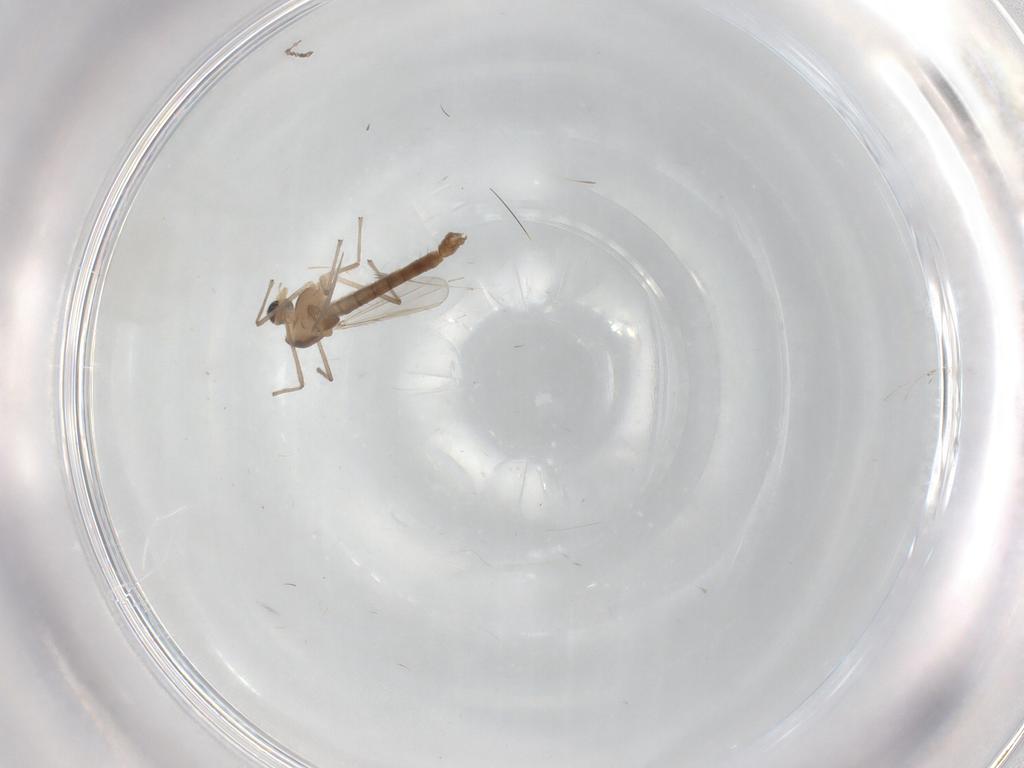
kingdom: Animalia
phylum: Arthropoda
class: Insecta
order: Diptera
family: Chironomidae
